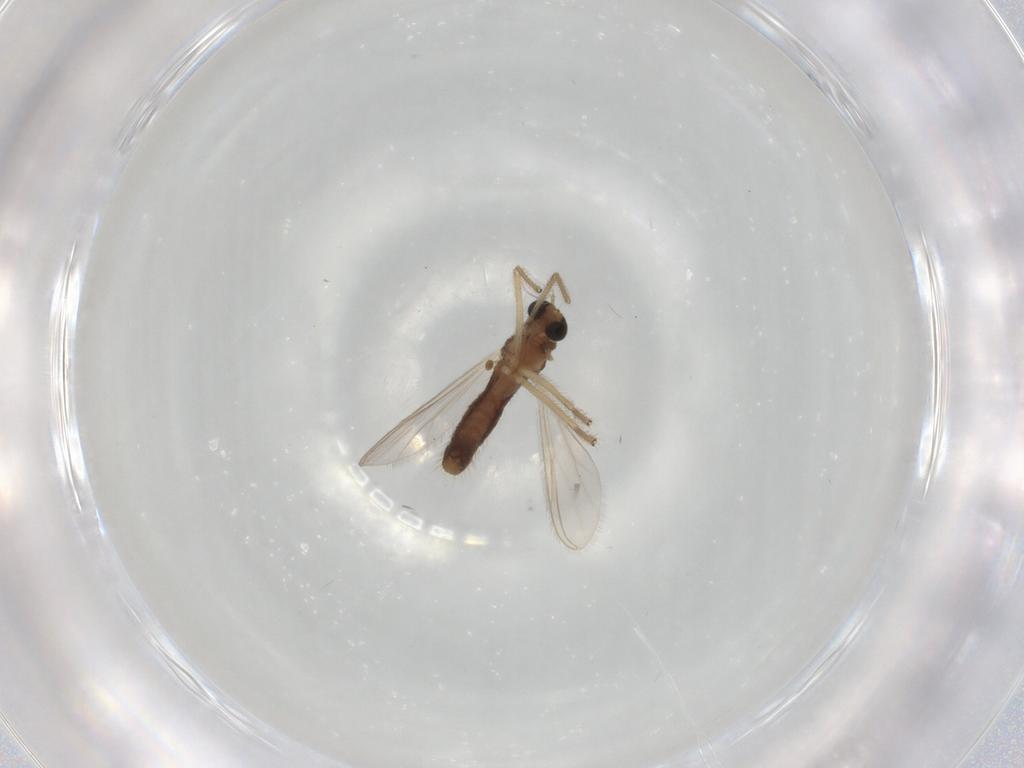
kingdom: Animalia
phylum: Arthropoda
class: Insecta
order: Diptera
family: Chironomidae
